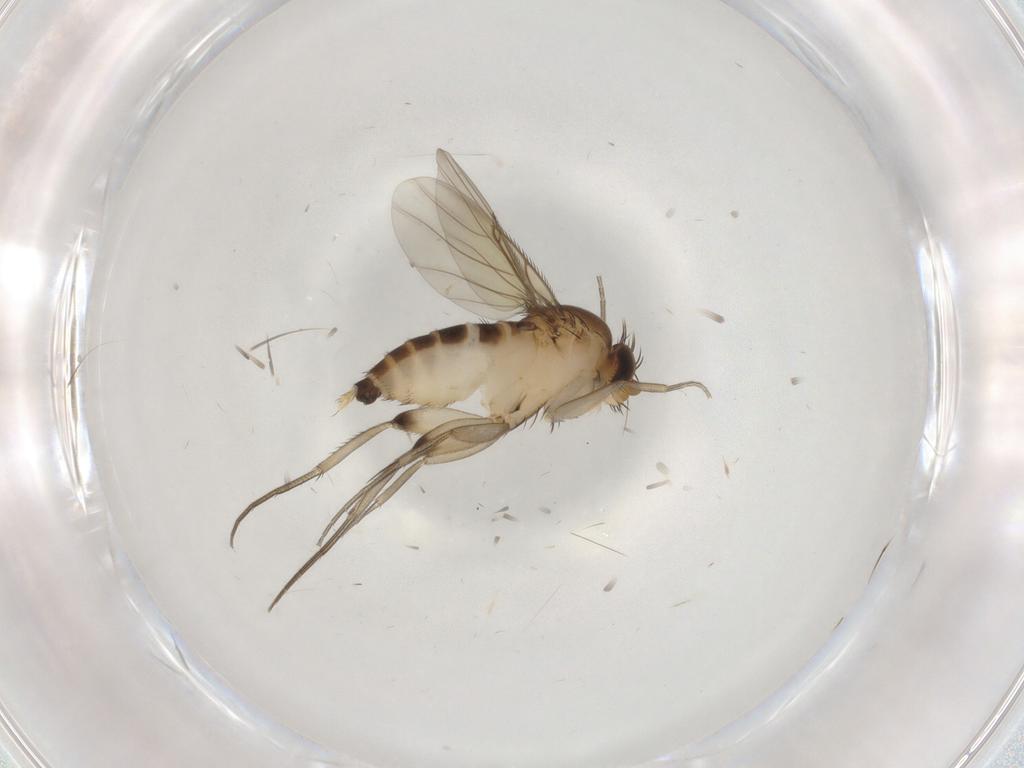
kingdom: Animalia
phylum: Arthropoda
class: Insecta
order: Diptera
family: Phoridae
